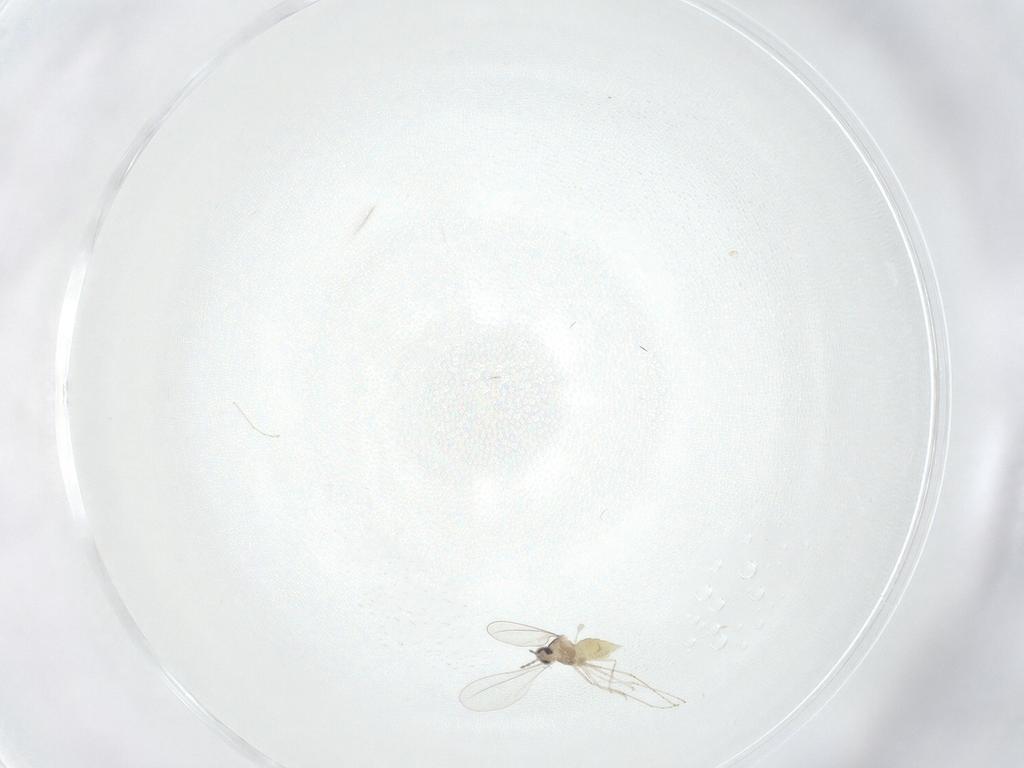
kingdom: Animalia
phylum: Arthropoda
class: Insecta
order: Diptera
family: Cecidomyiidae
